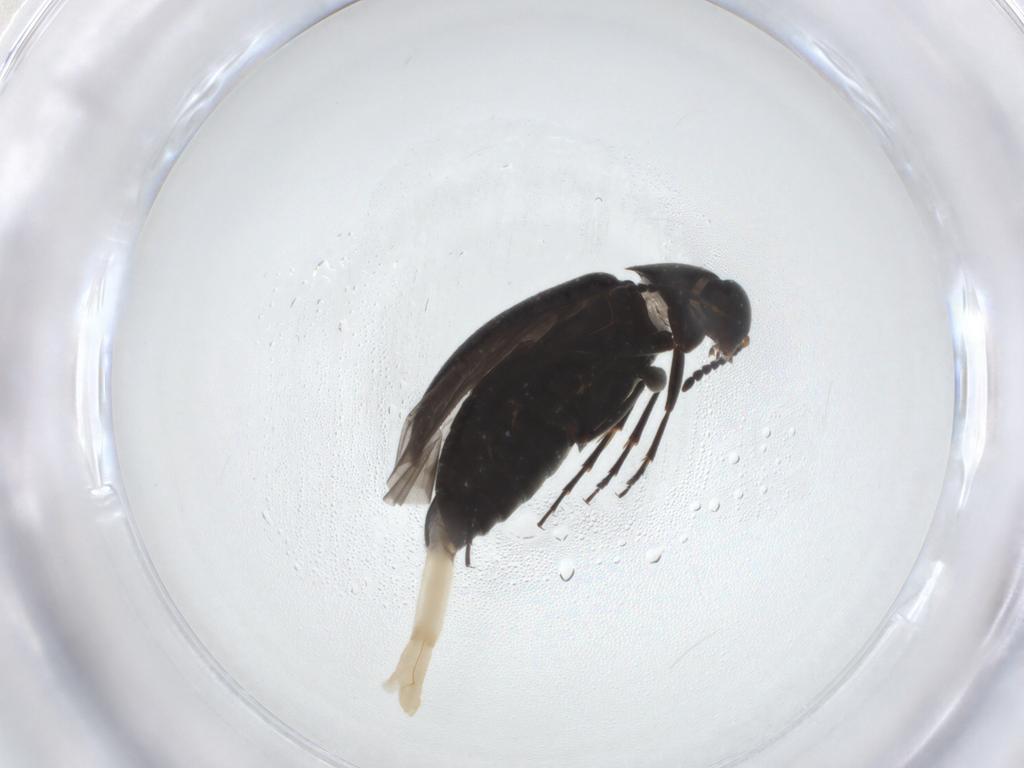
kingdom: Animalia
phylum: Arthropoda
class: Insecta
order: Coleoptera
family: Scraptiidae
